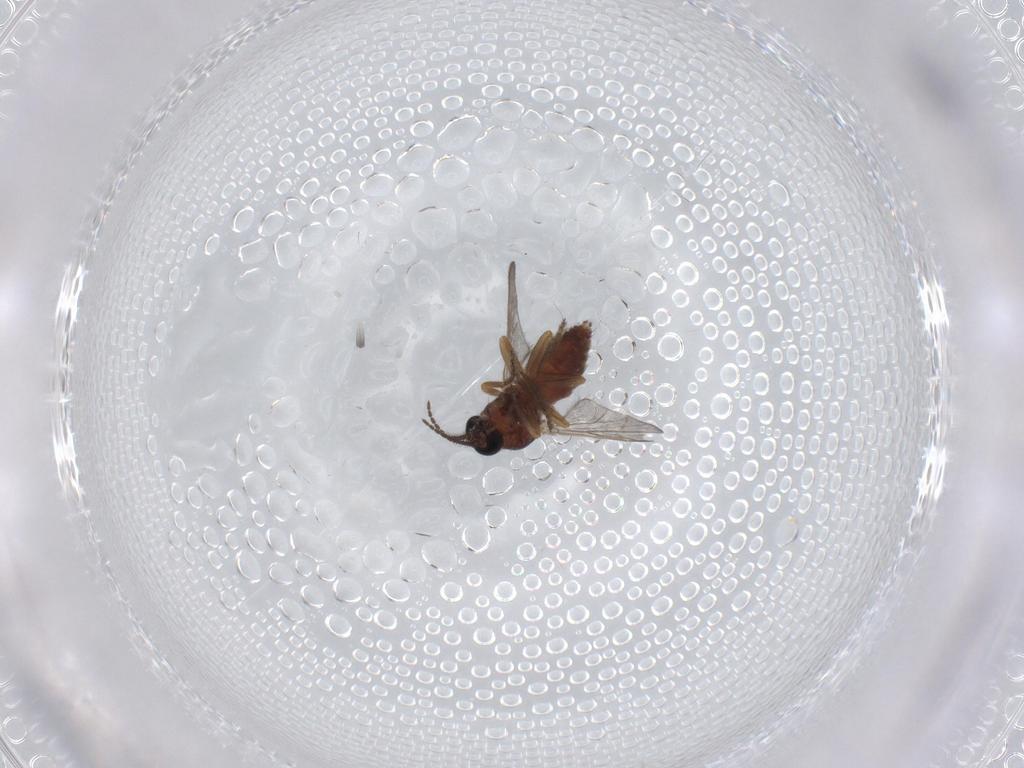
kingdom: Animalia
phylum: Arthropoda
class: Insecta
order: Diptera
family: Ceratopogonidae
